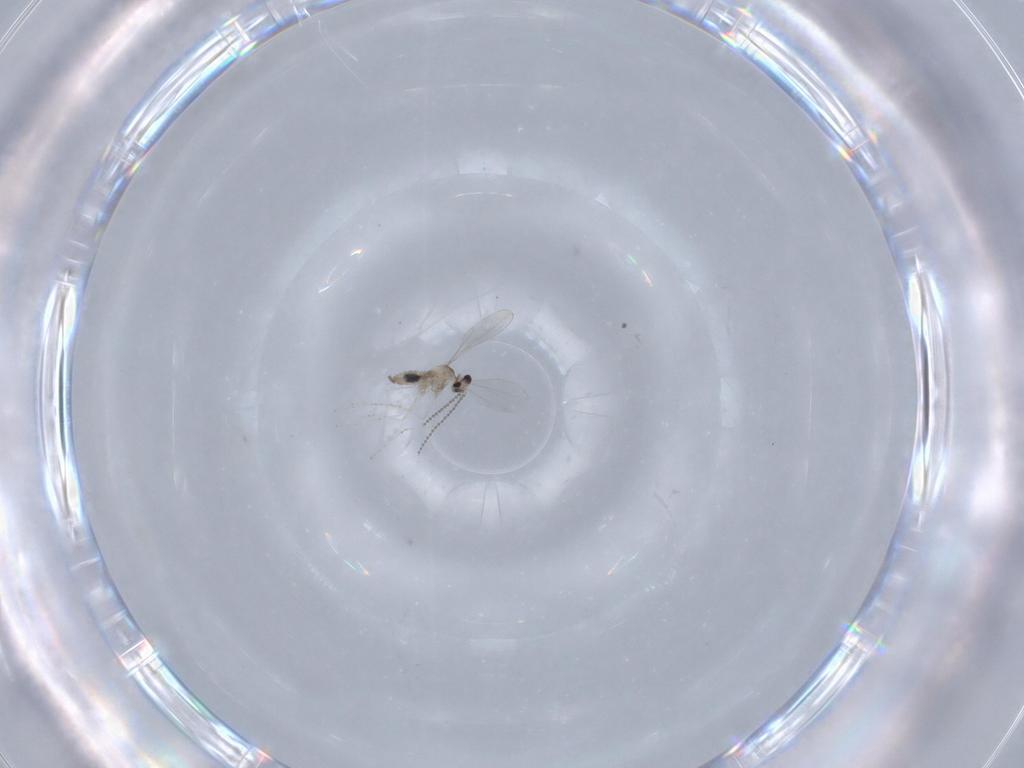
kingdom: Animalia
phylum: Arthropoda
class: Insecta
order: Diptera
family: Cecidomyiidae
